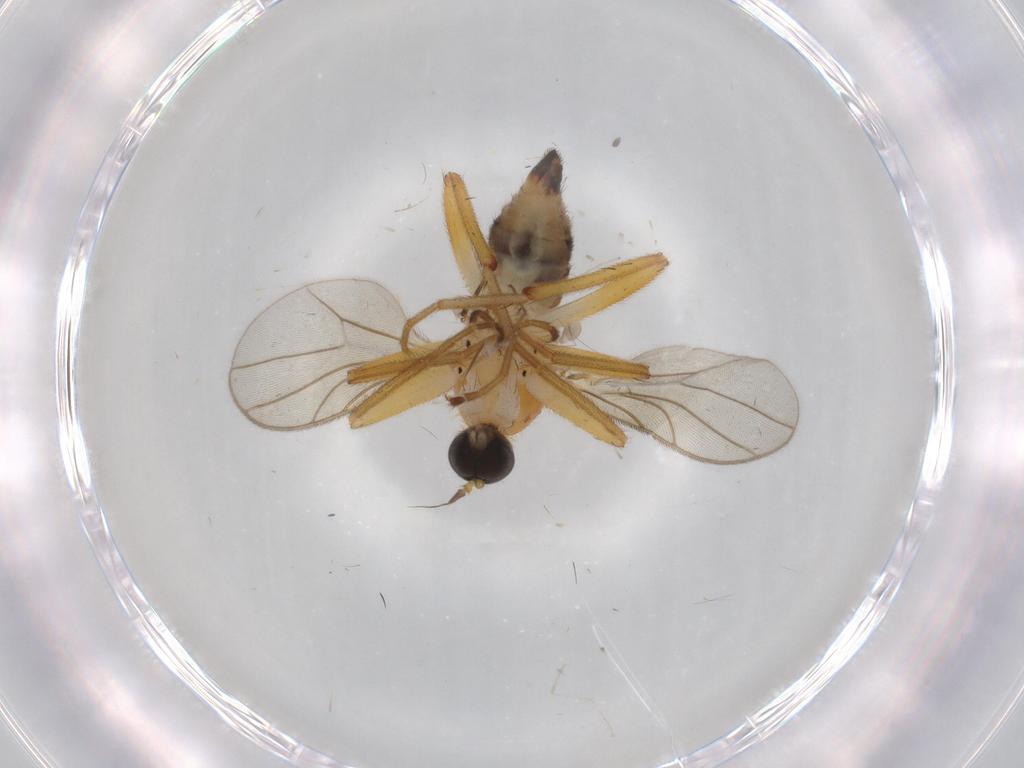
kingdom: Animalia
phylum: Arthropoda
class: Insecta
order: Diptera
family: Hybotidae
